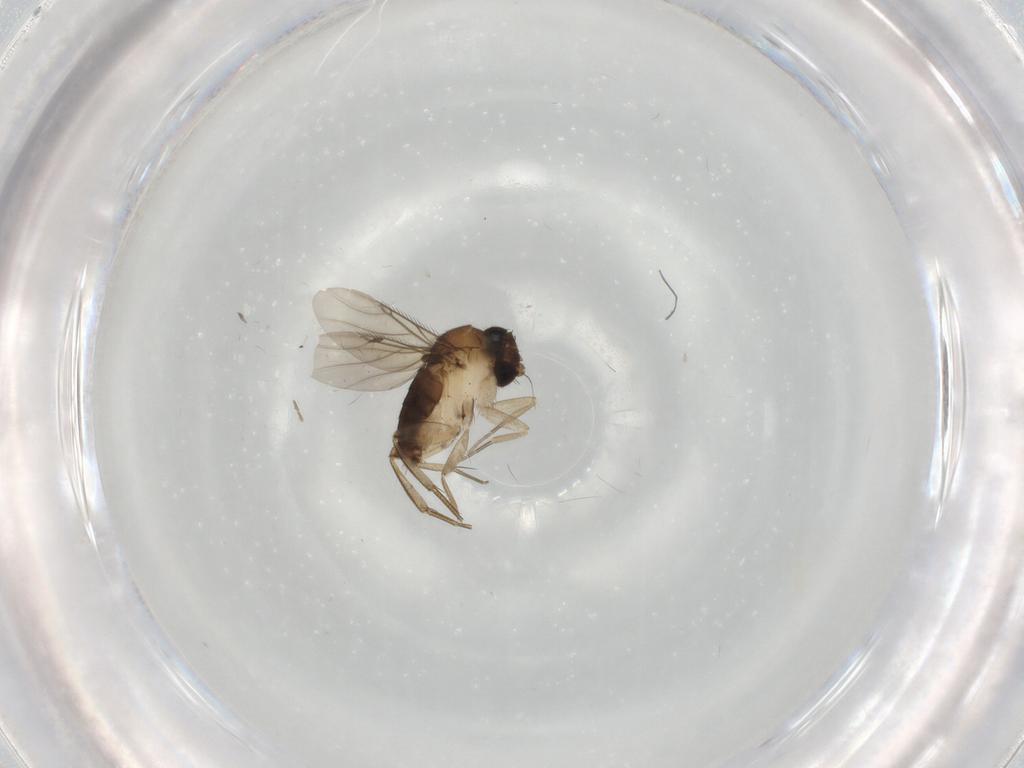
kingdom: Animalia
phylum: Arthropoda
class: Insecta
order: Diptera
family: Phoridae
